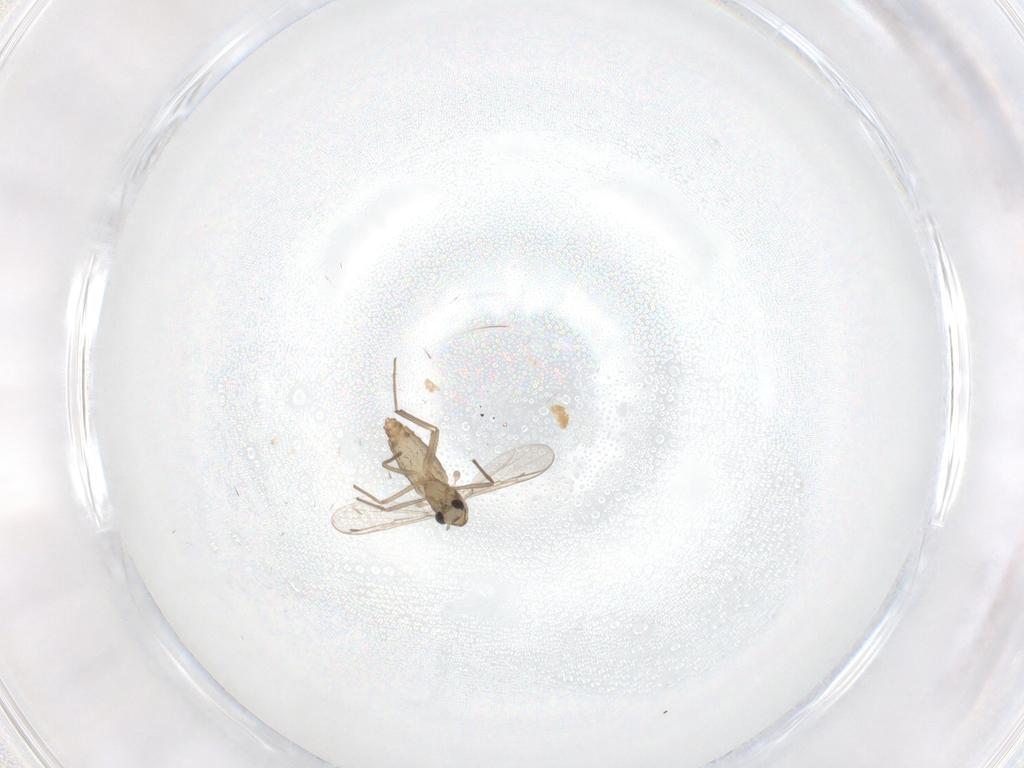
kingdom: Animalia
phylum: Arthropoda
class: Insecta
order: Diptera
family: Chironomidae
